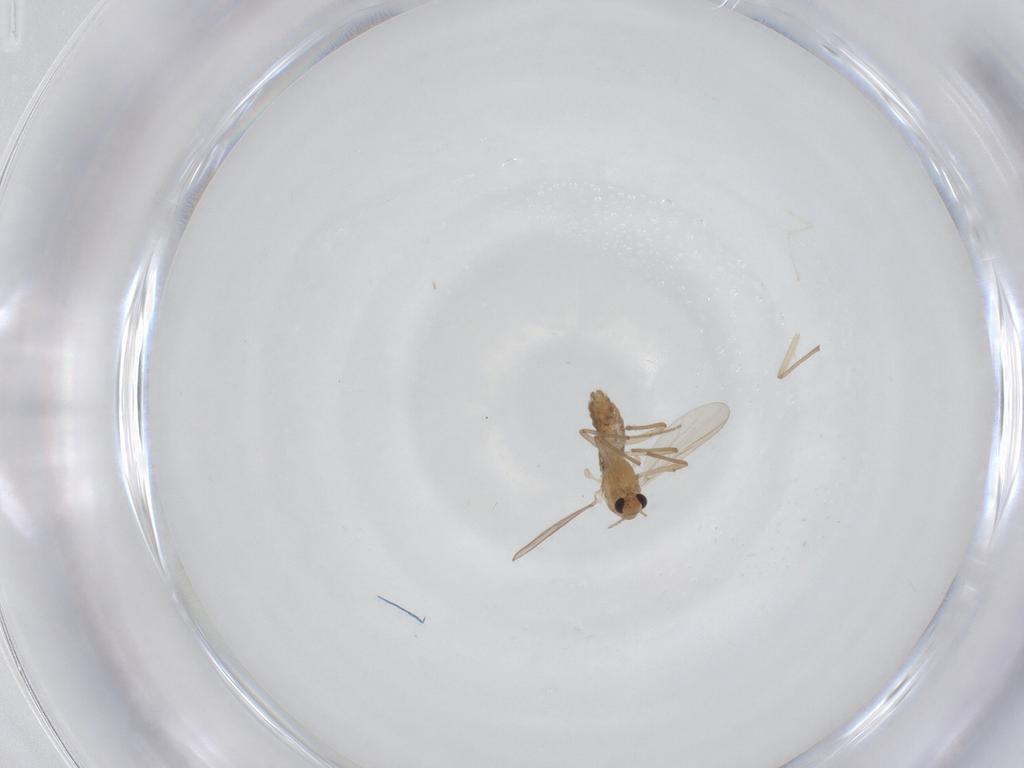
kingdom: Animalia
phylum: Arthropoda
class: Insecta
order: Diptera
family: Chironomidae
